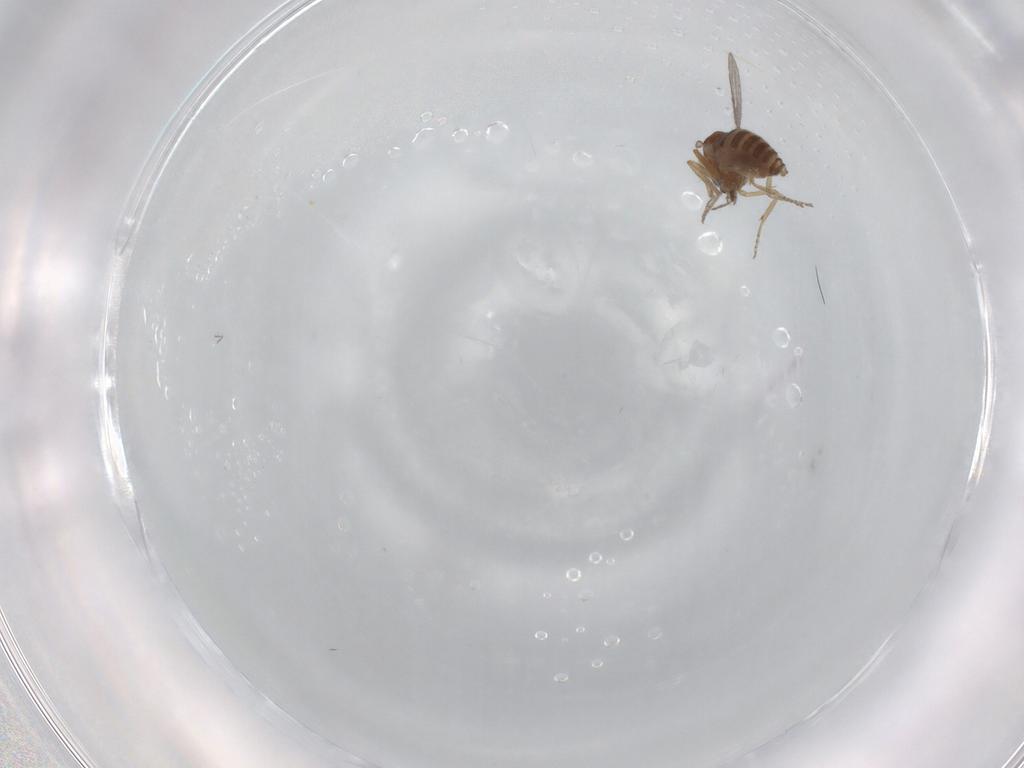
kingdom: Animalia
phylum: Arthropoda
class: Insecta
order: Diptera
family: Ceratopogonidae
